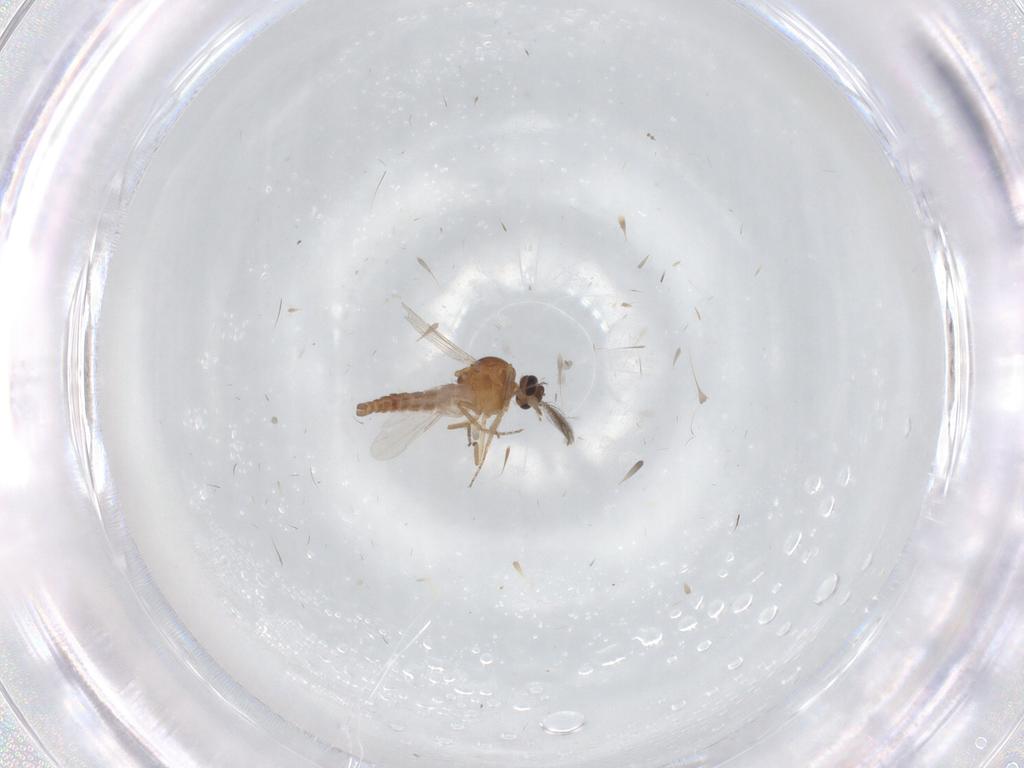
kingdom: Animalia
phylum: Arthropoda
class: Insecta
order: Diptera
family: Ceratopogonidae
